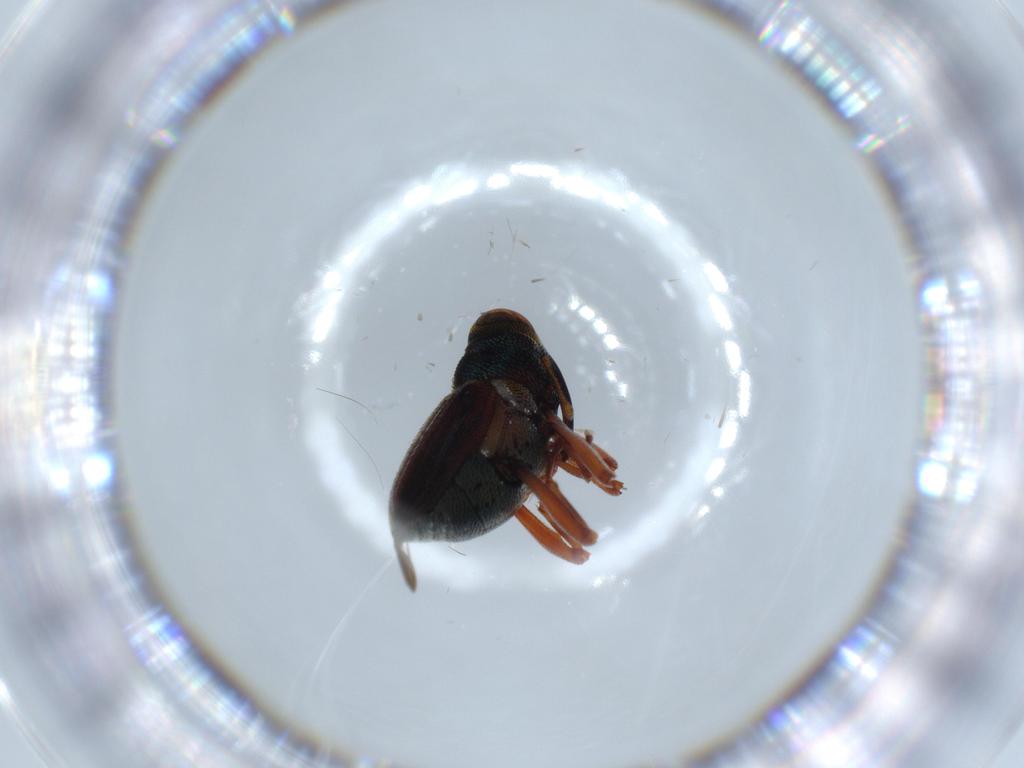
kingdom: Animalia
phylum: Arthropoda
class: Insecta
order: Coleoptera
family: Curculionidae
